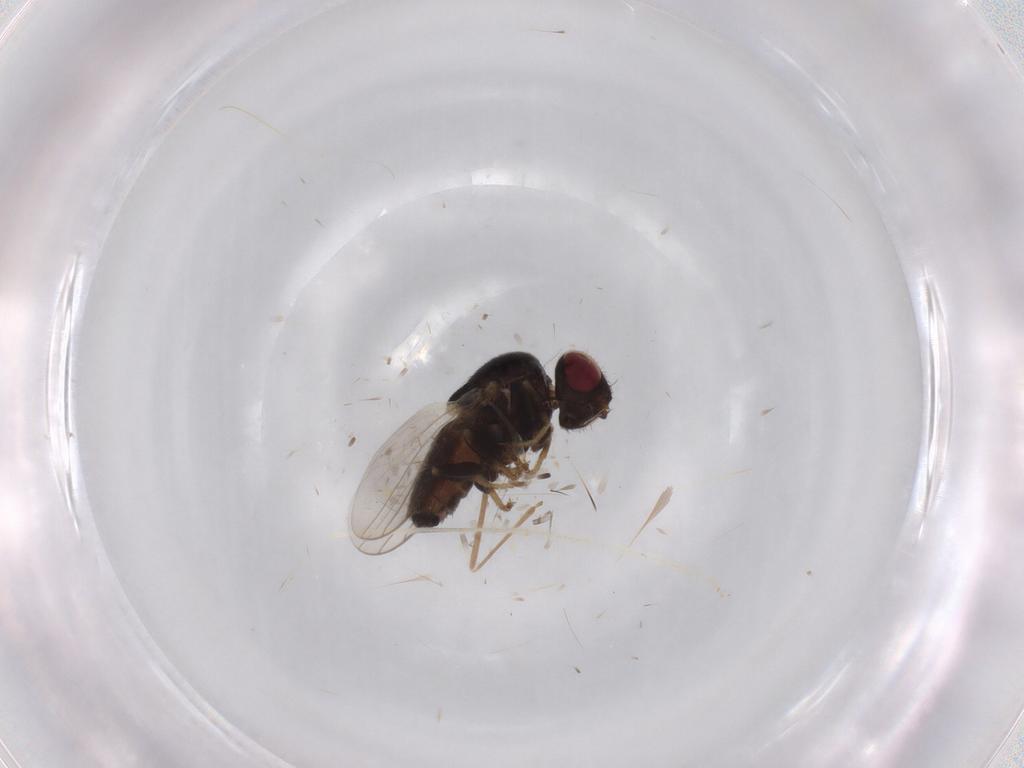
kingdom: Animalia
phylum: Arthropoda
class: Insecta
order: Diptera
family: Chloropidae
